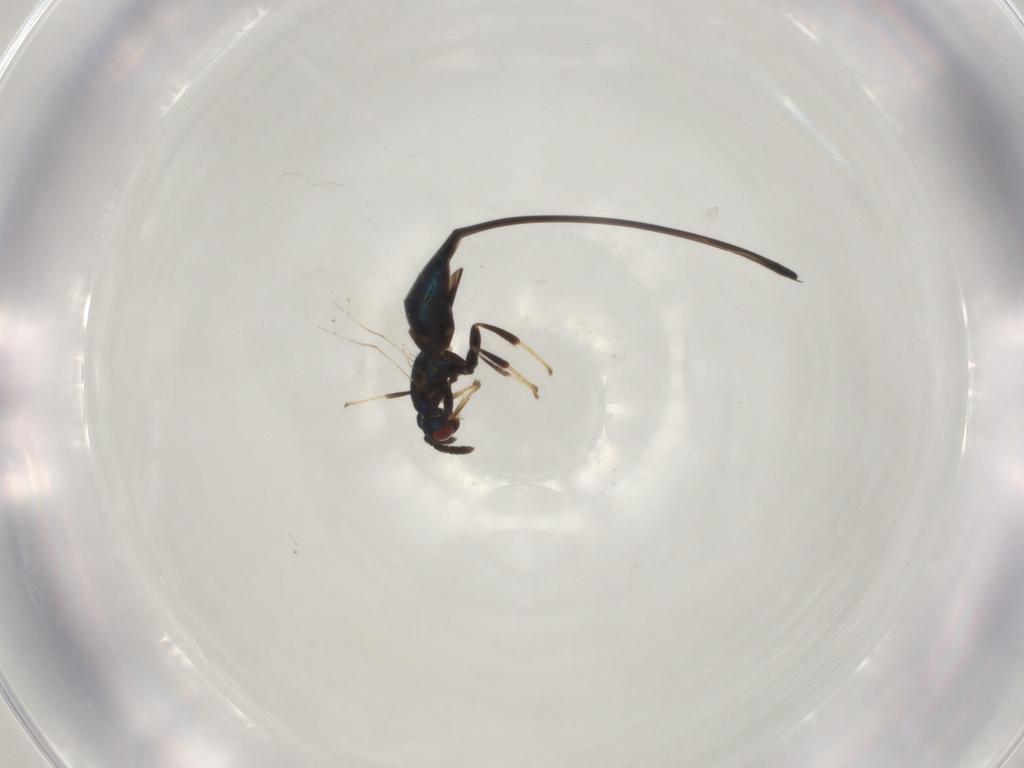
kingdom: Animalia
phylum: Arthropoda
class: Insecta
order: Hymenoptera
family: Pteromalidae
